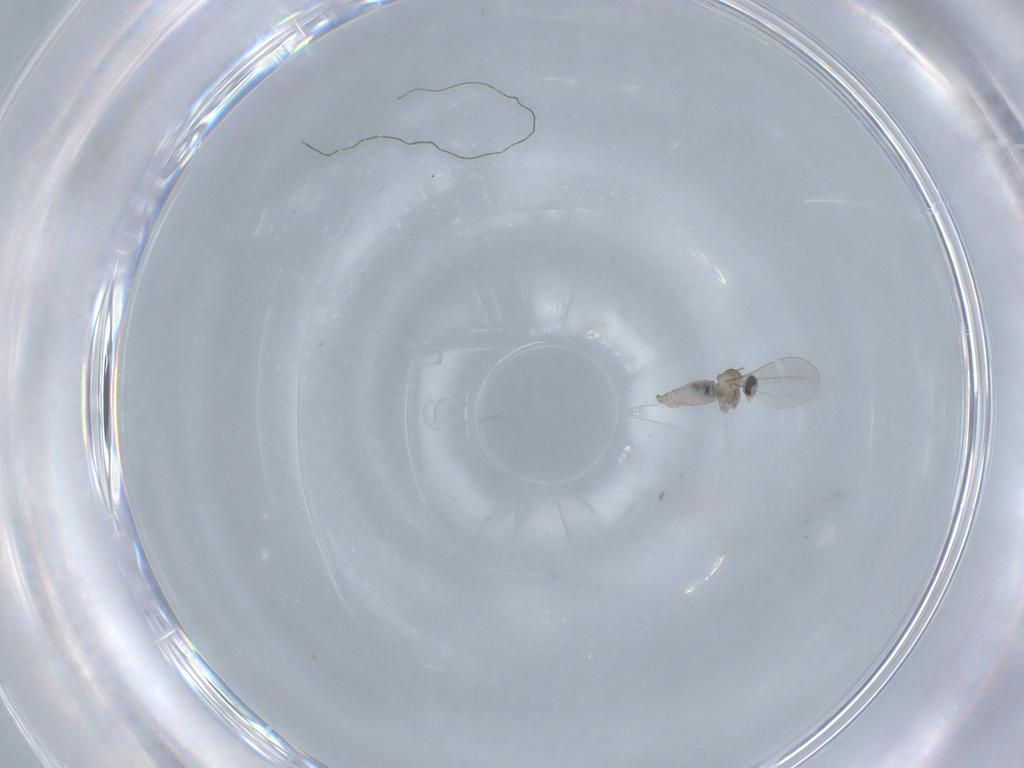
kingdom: Animalia
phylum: Arthropoda
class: Insecta
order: Diptera
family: Cecidomyiidae
